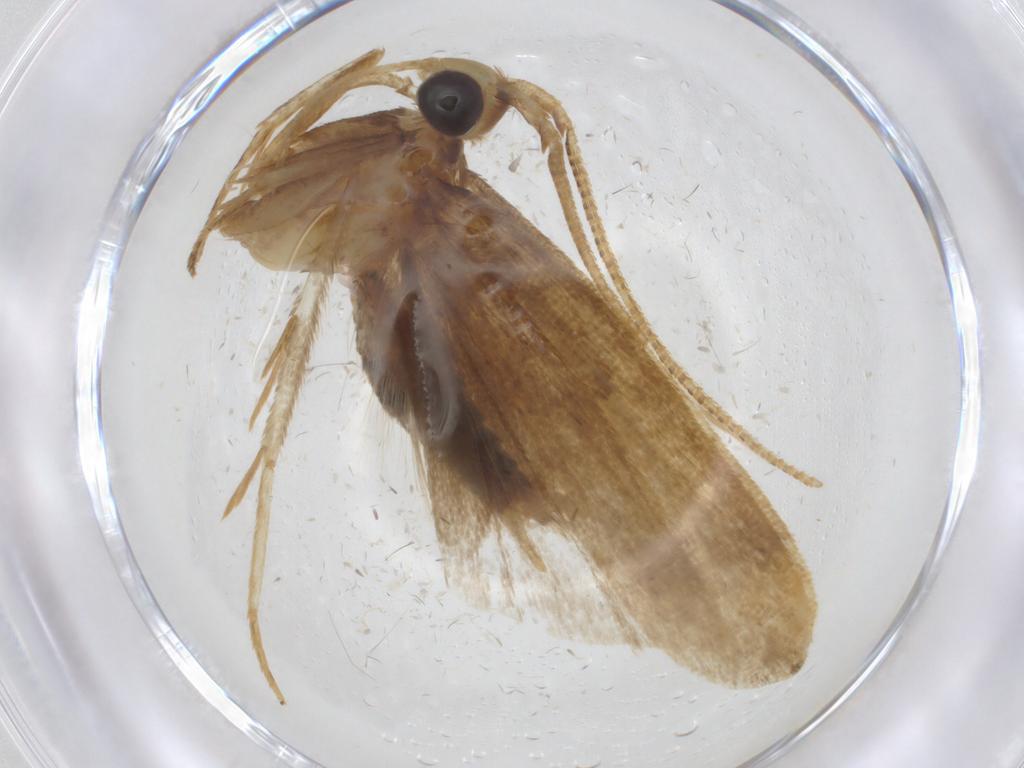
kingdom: Animalia
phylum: Arthropoda
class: Insecta
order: Lepidoptera
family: Autostichidae
